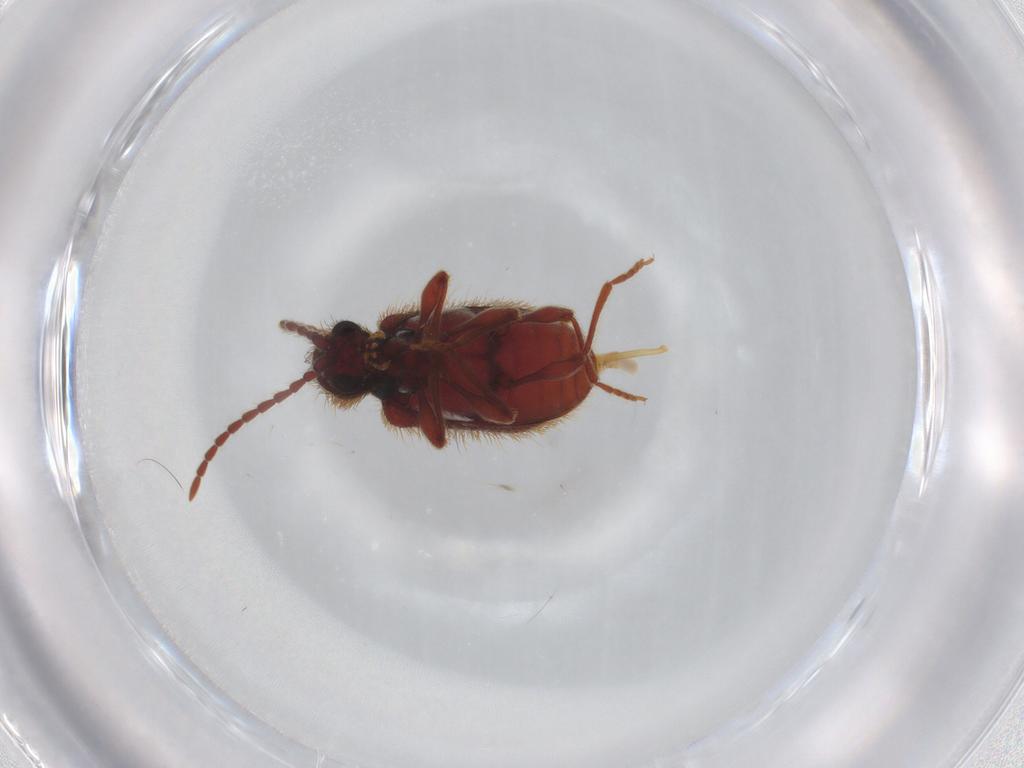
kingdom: Animalia
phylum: Arthropoda
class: Insecta
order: Coleoptera
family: Ptinidae
